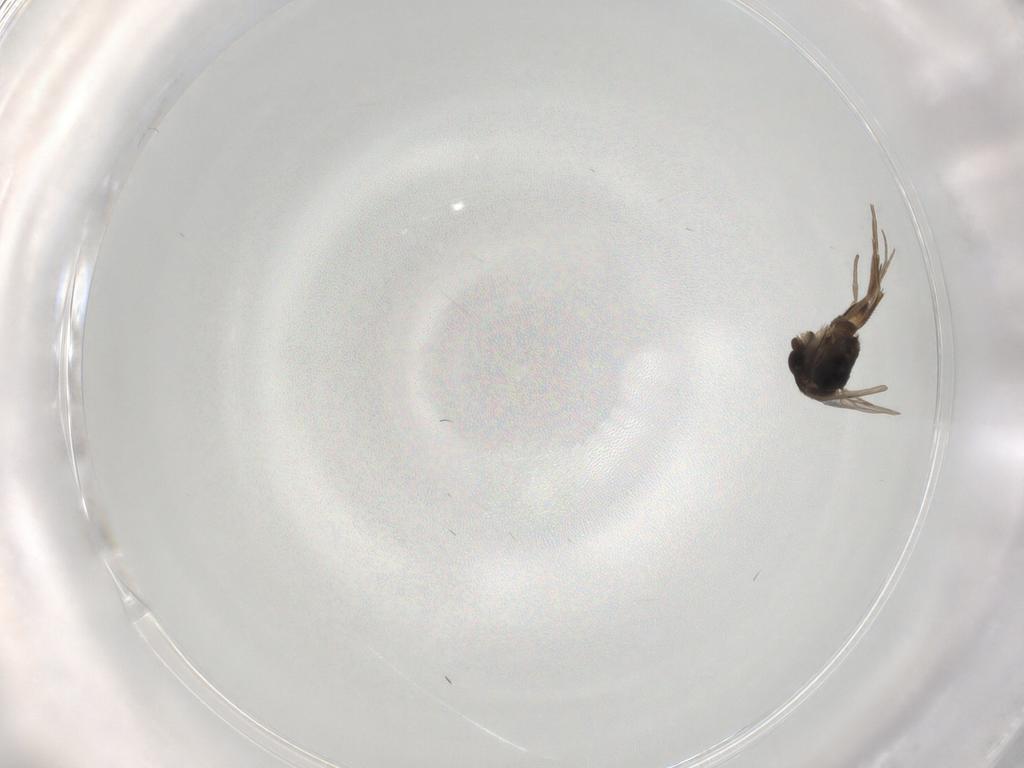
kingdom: Animalia
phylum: Arthropoda
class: Insecta
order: Diptera
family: Phoridae
